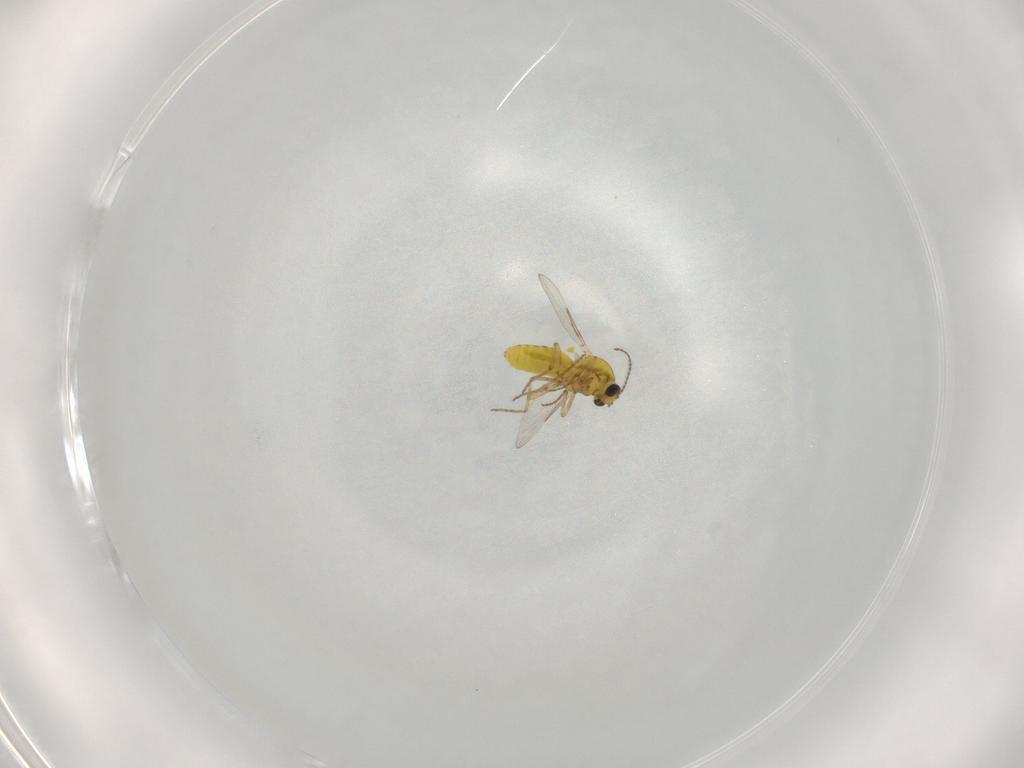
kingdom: Animalia
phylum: Arthropoda
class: Insecta
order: Diptera
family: Ceratopogonidae
